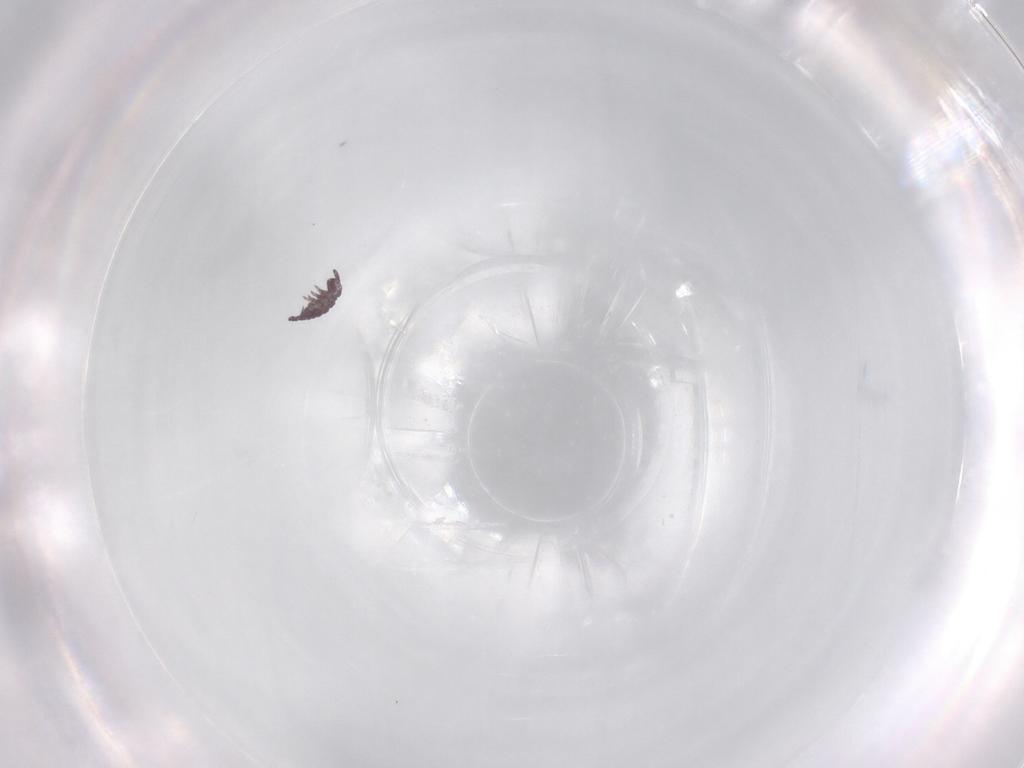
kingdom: Animalia
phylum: Arthropoda
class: Collembola
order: Poduromorpha
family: Hypogastruridae
